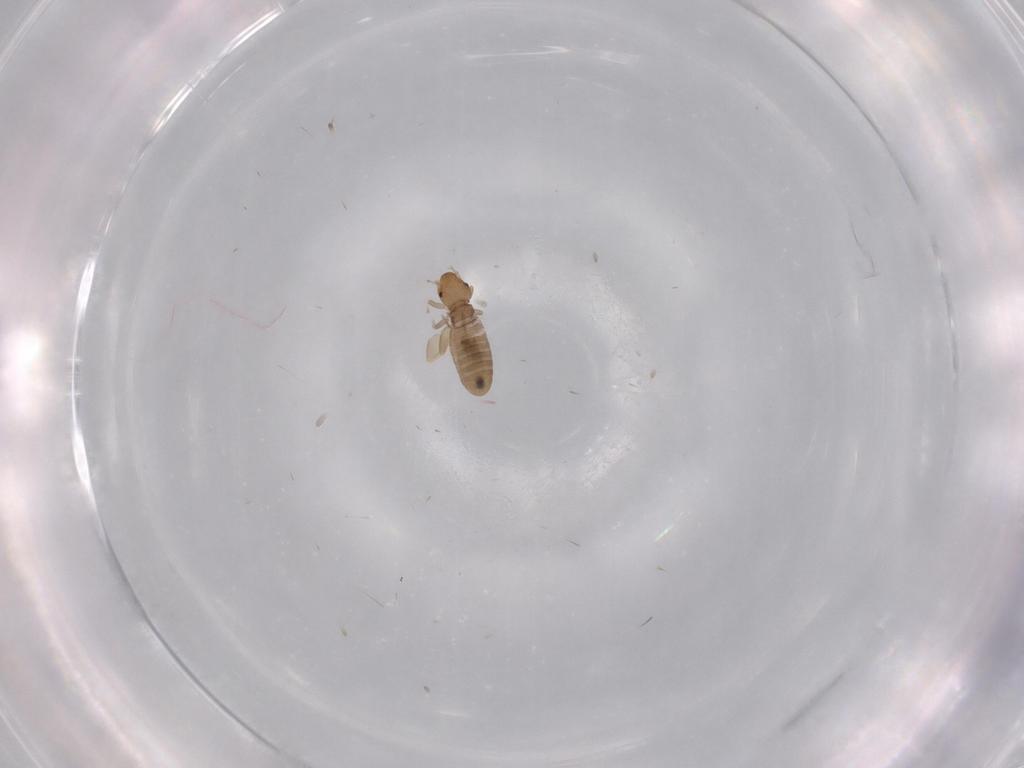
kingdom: Animalia
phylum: Arthropoda
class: Insecta
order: Psocodea
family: Liposcelididae
